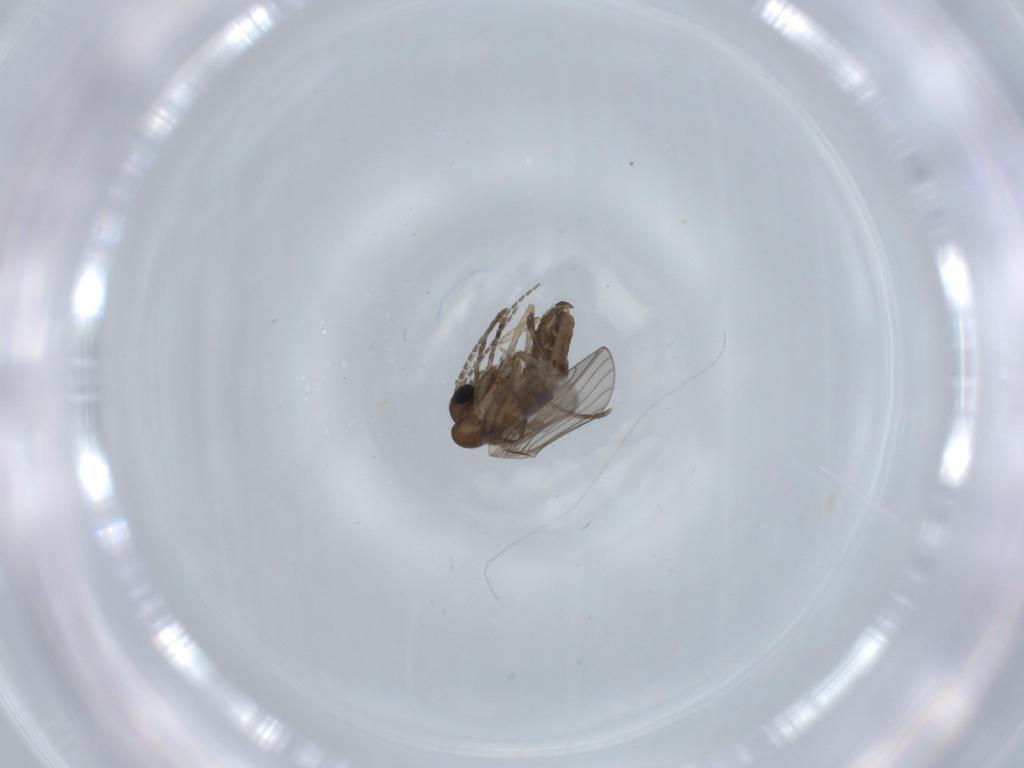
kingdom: Animalia
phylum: Arthropoda
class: Insecta
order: Diptera
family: Psychodidae
